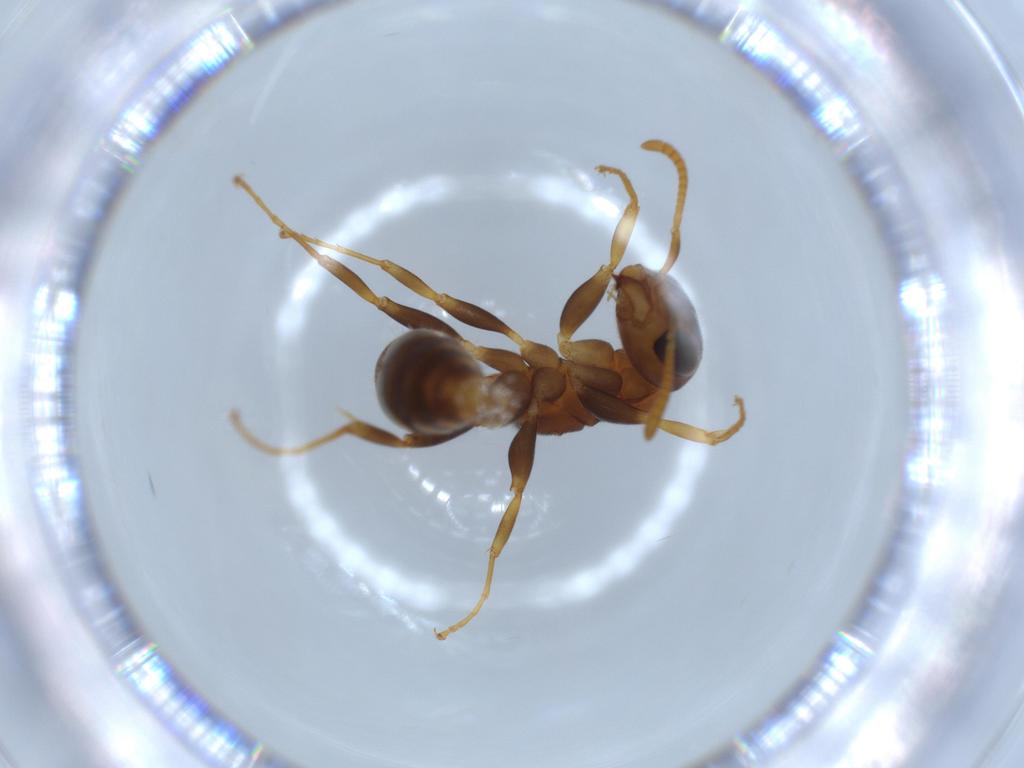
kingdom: Animalia
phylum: Arthropoda
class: Insecta
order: Hymenoptera
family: Formicidae
